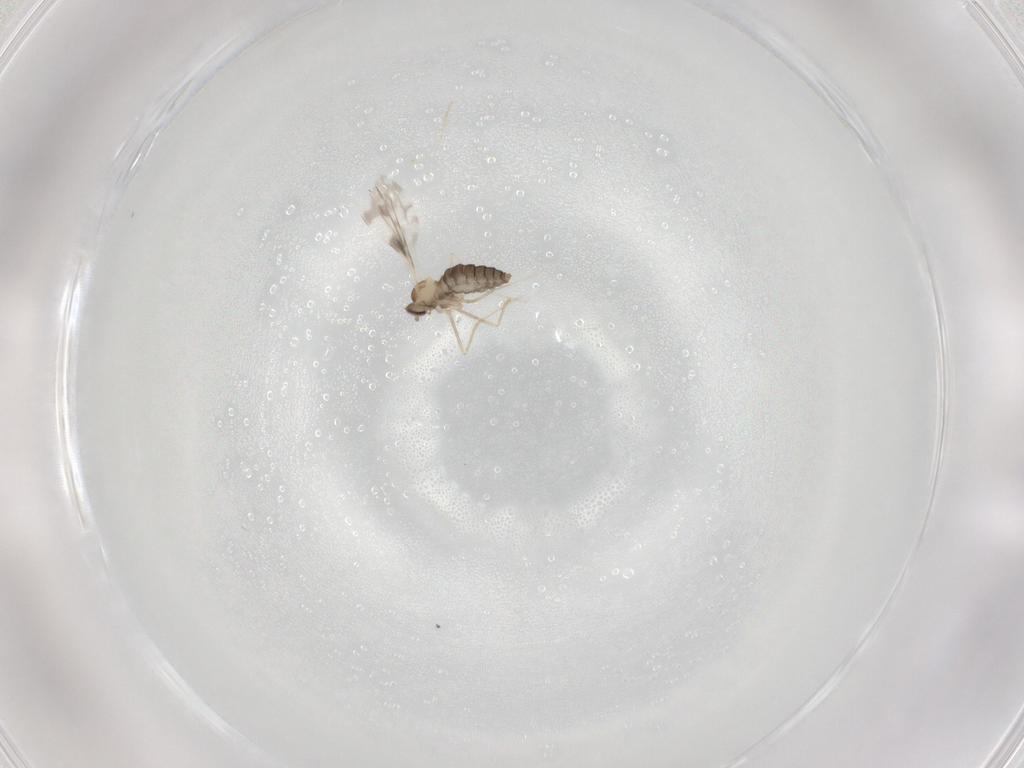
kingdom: Animalia
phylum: Arthropoda
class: Insecta
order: Diptera
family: Cecidomyiidae
